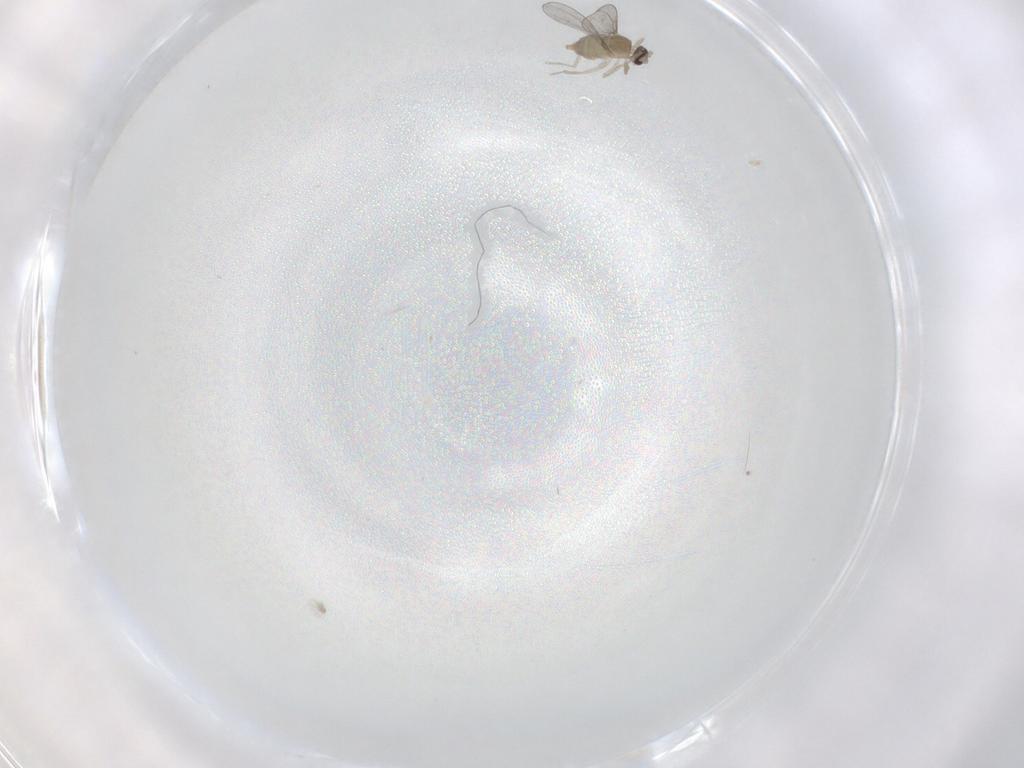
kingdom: Animalia
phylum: Arthropoda
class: Insecta
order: Diptera
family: Cecidomyiidae
